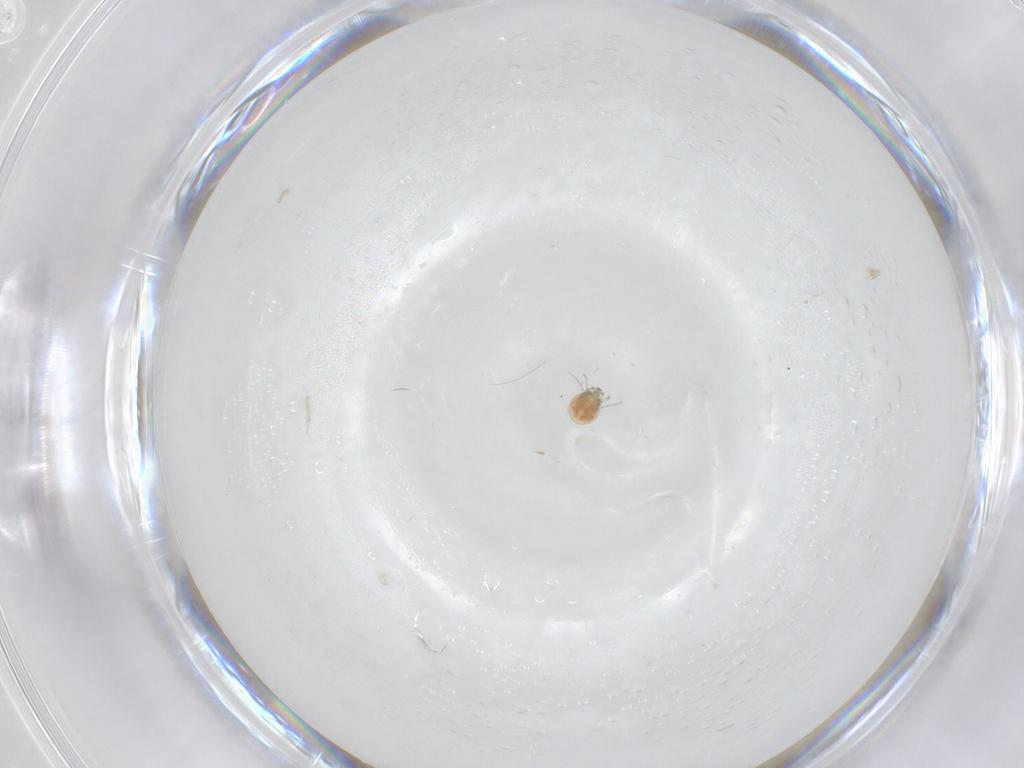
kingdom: Animalia
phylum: Arthropoda
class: Arachnida
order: Trombidiformes
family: Pionidae
